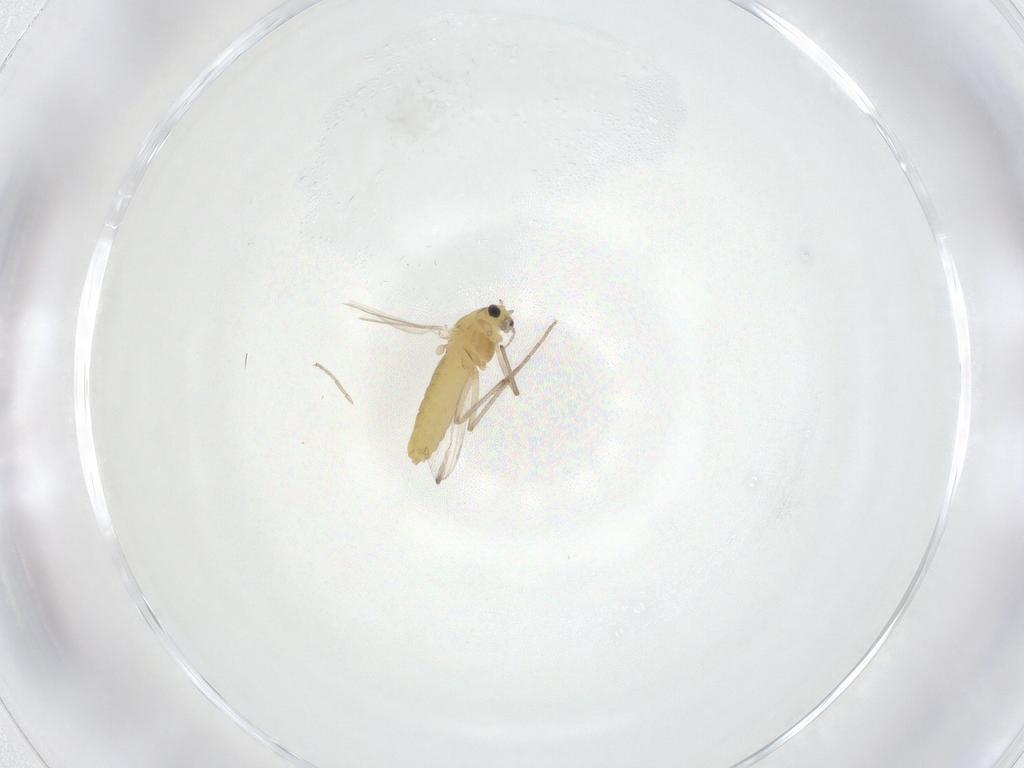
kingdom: Animalia
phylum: Arthropoda
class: Insecta
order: Diptera
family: Chironomidae
